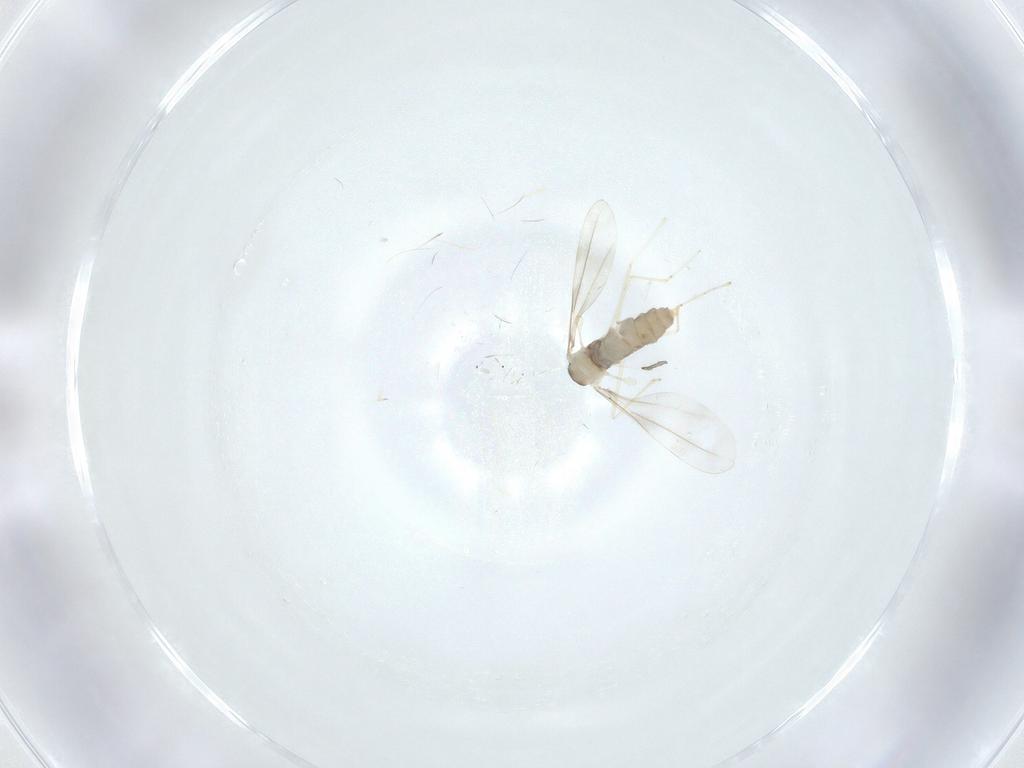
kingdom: Animalia
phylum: Arthropoda
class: Insecta
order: Diptera
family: Cecidomyiidae
